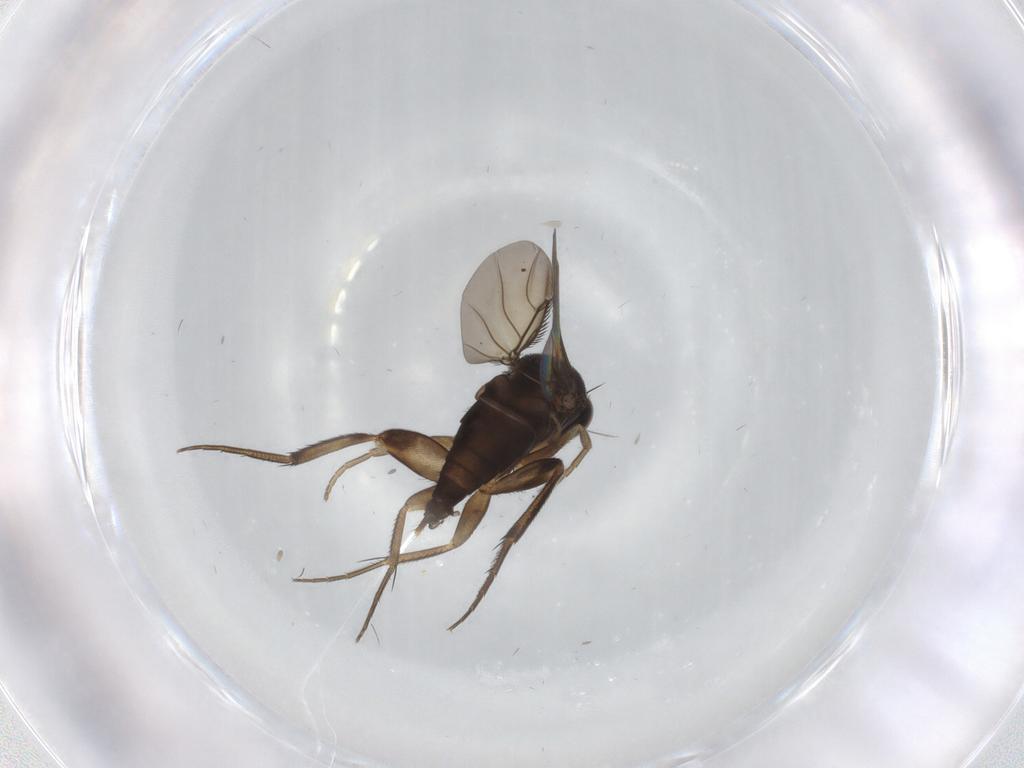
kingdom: Animalia
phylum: Arthropoda
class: Insecta
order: Diptera
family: Phoridae
